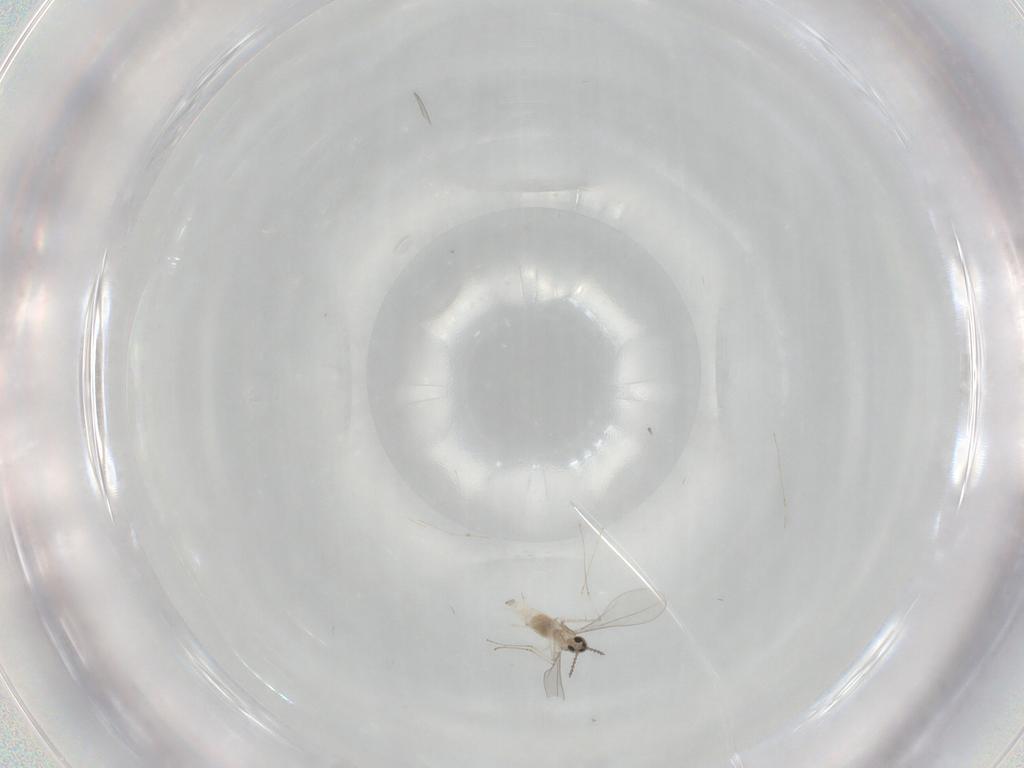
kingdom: Animalia
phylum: Arthropoda
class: Insecta
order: Diptera
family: Cecidomyiidae
